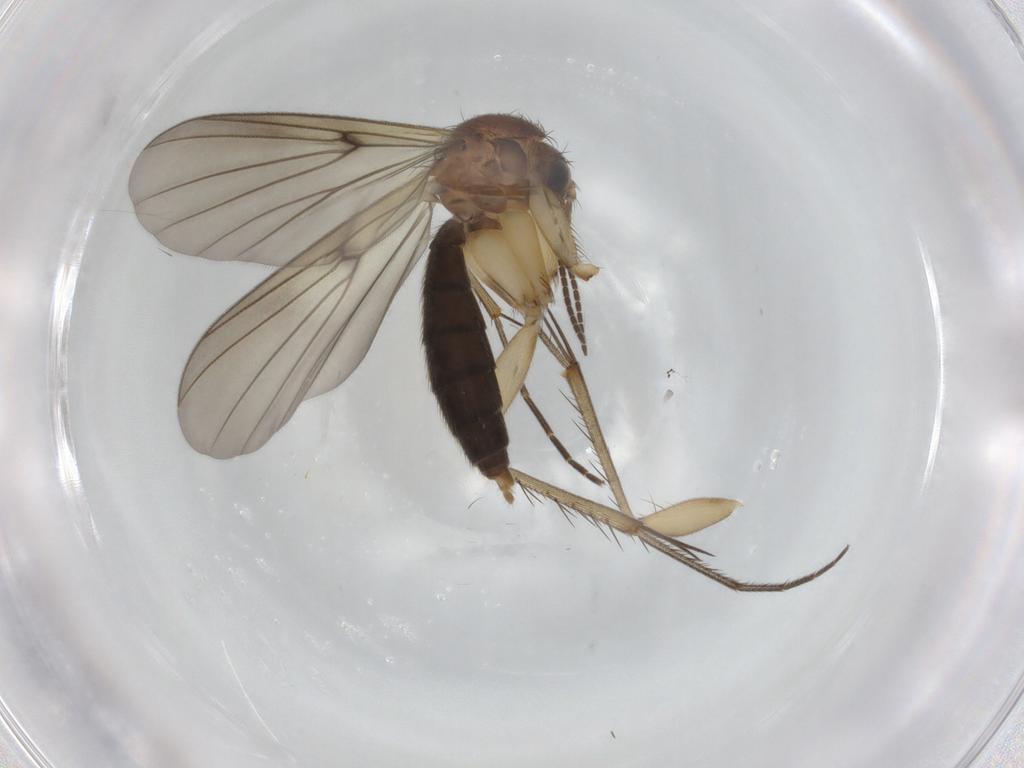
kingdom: Animalia
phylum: Arthropoda
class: Insecta
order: Diptera
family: Mycetophilidae
